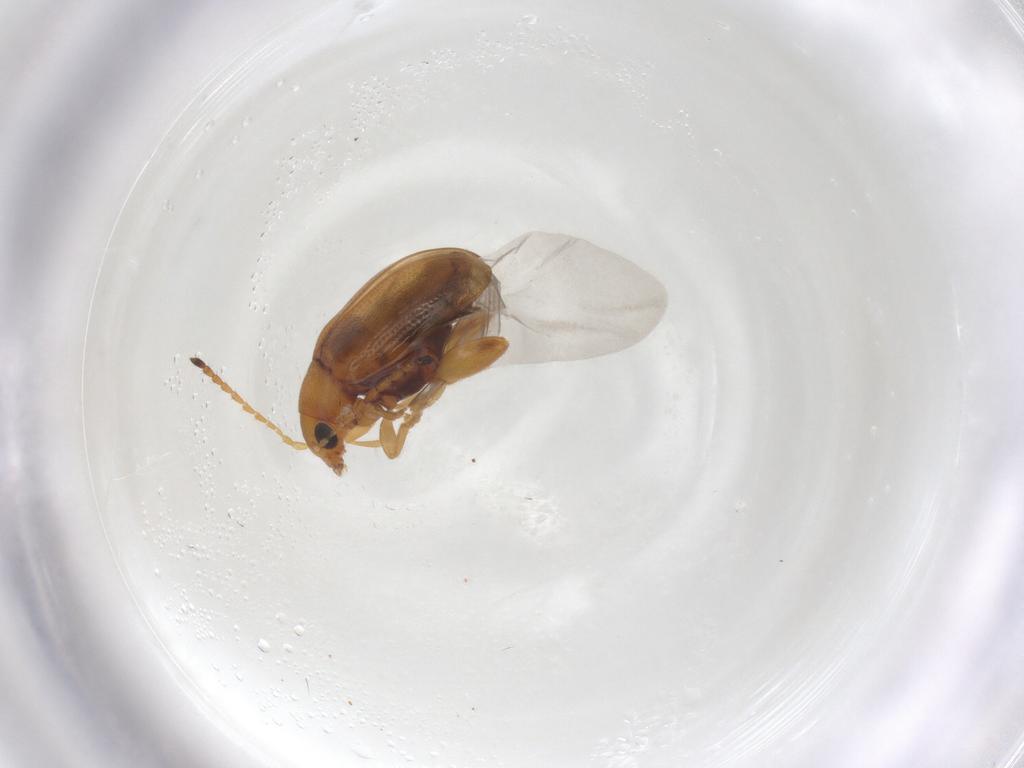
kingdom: Animalia
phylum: Arthropoda
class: Insecta
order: Coleoptera
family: Chrysomelidae
